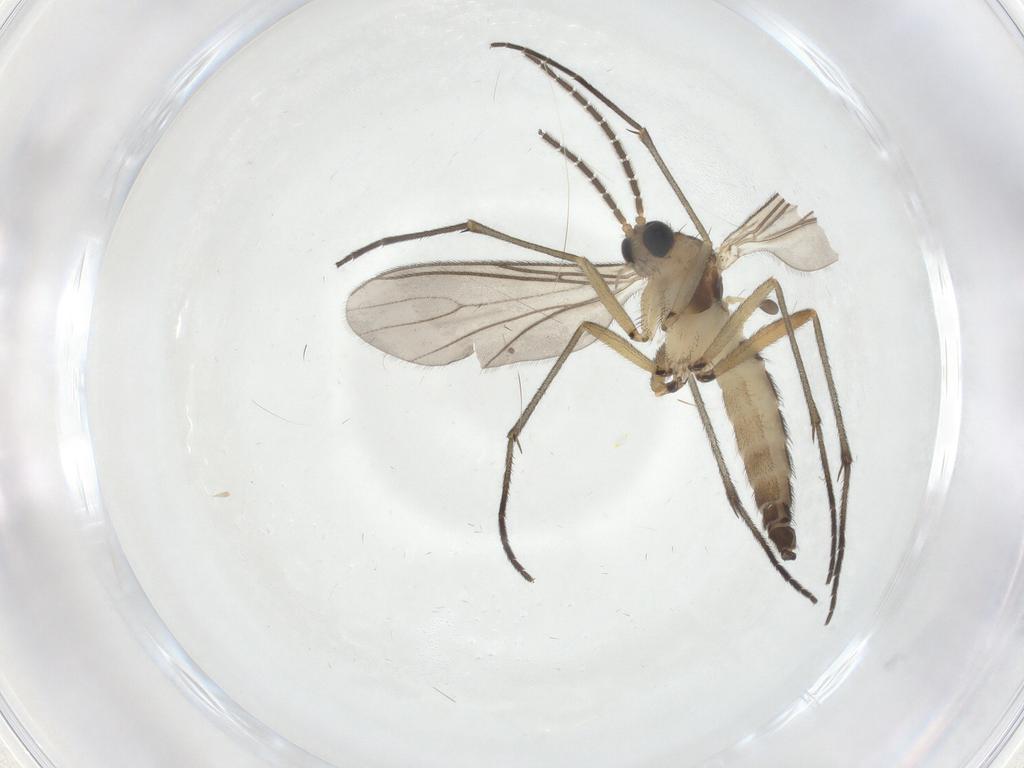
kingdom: Animalia
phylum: Arthropoda
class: Insecta
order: Diptera
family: Sciaridae
